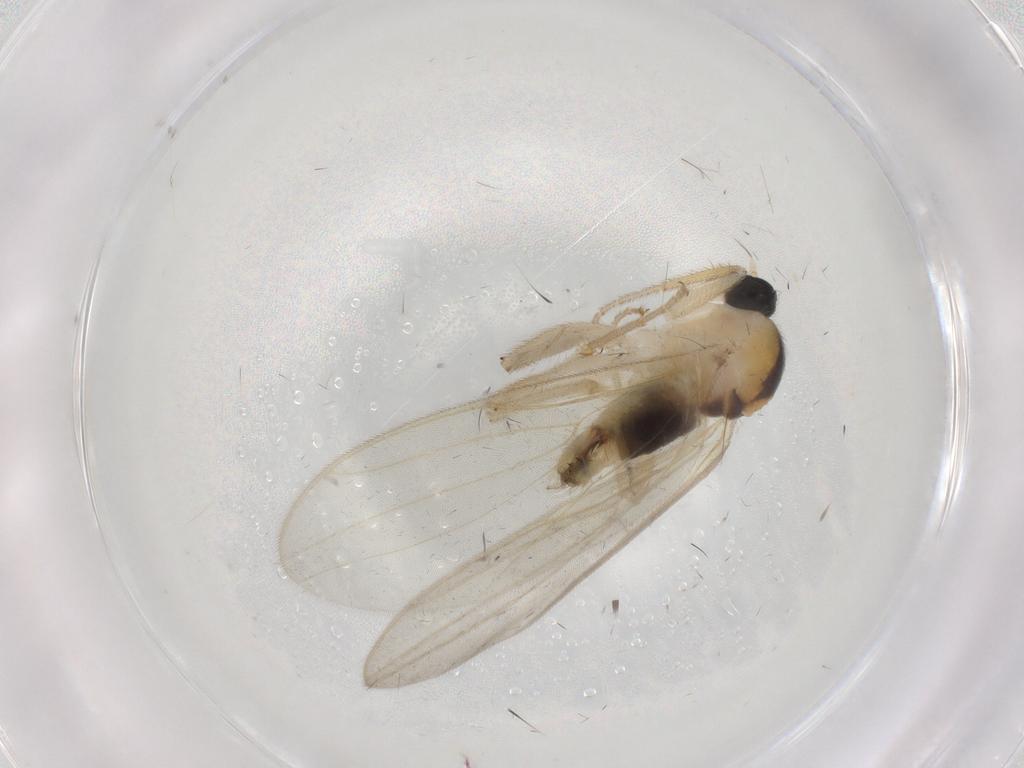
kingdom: Animalia
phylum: Arthropoda
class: Insecta
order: Diptera
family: Hybotidae
